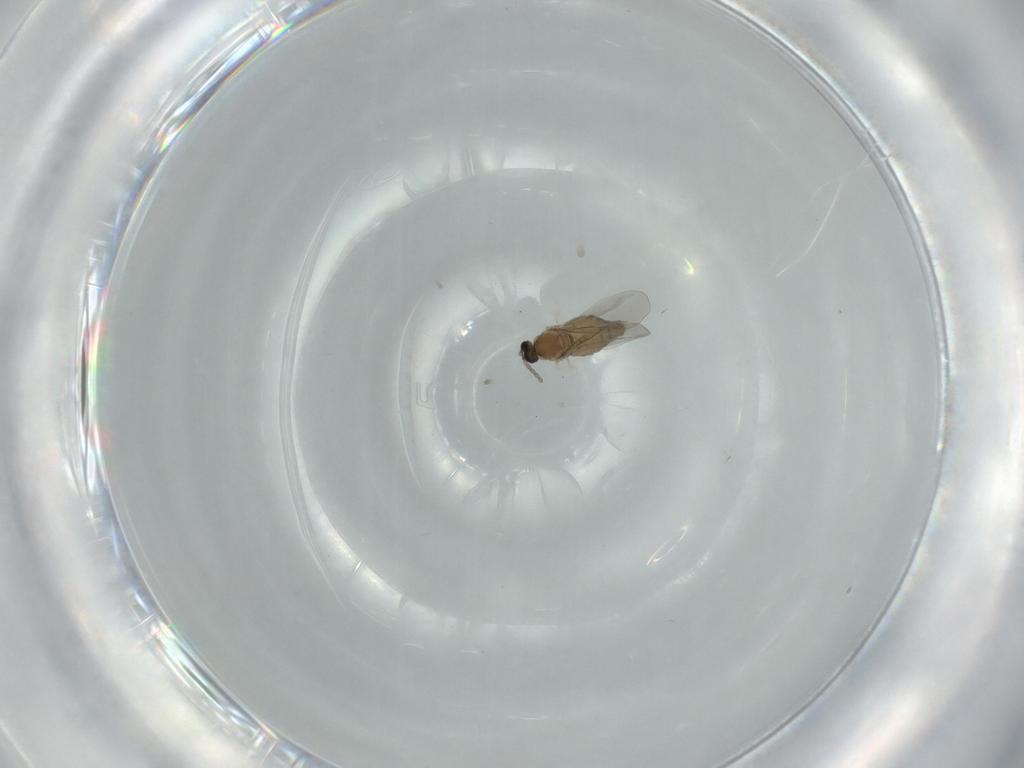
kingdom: Animalia
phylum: Arthropoda
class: Insecta
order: Diptera
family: Cecidomyiidae
